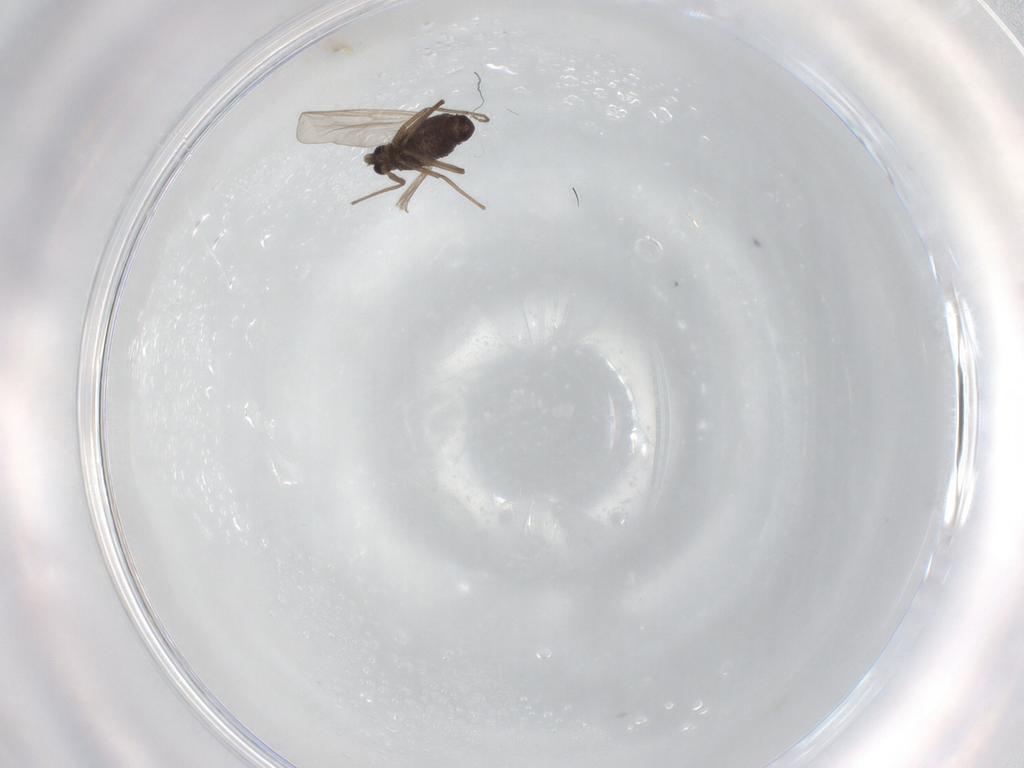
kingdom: Animalia
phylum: Arthropoda
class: Insecta
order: Diptera
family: Chironomidae
